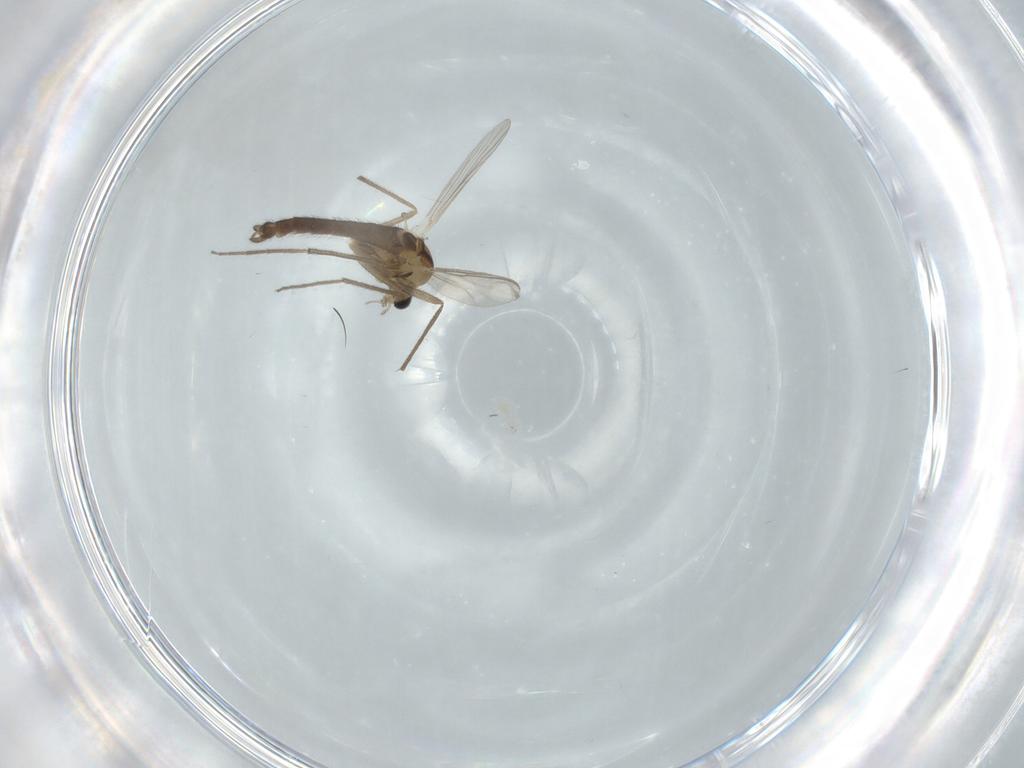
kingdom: Animalia
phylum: Arthropoda
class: Insecta
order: Diptera
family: Chironomidae
